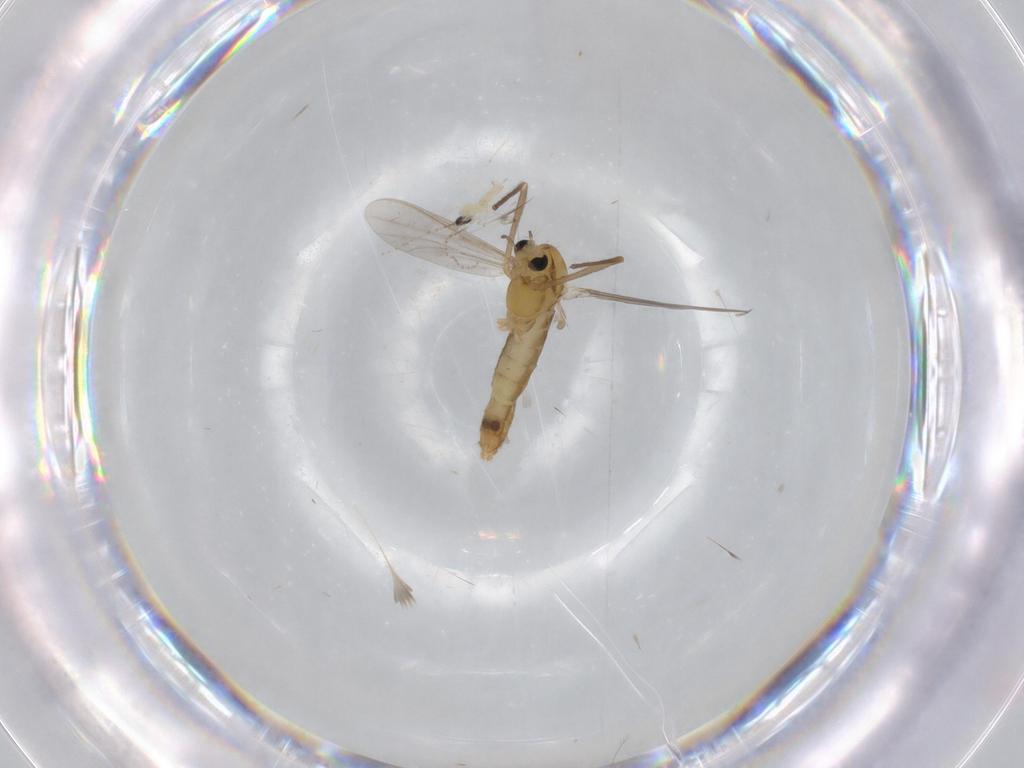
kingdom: Animalia
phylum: Arthropoda
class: Insecta
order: Diptera
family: Chironomidae
